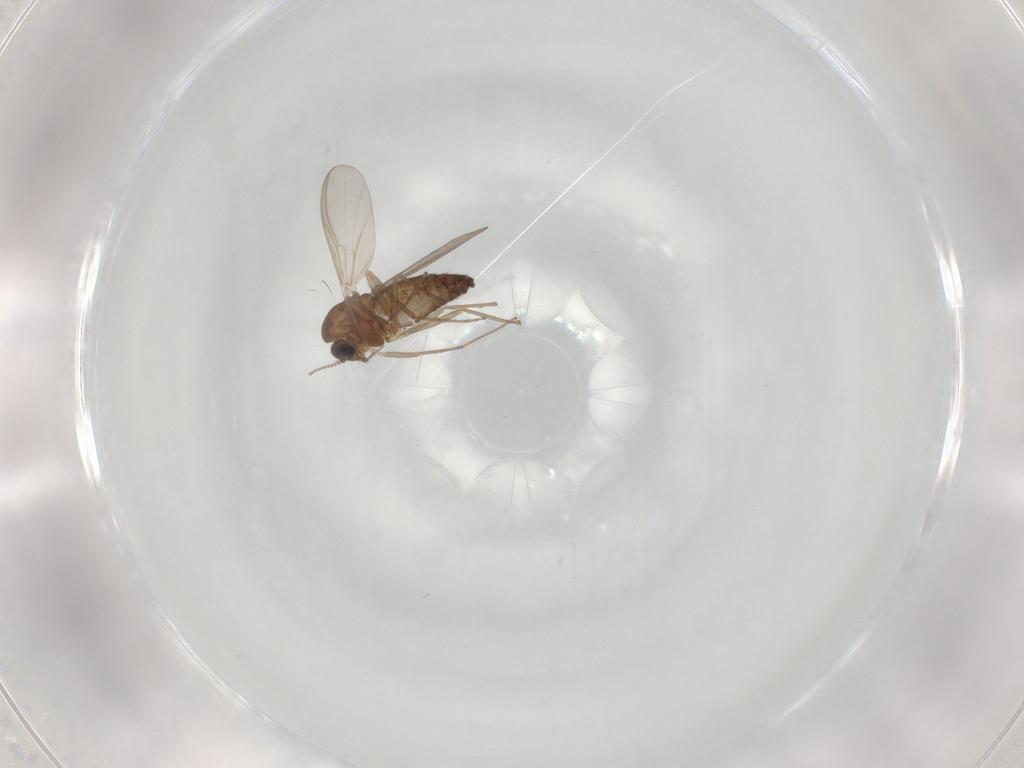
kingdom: Animalia
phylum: Arthropoda
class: Insecta
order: Diptera
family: Chironomidae
